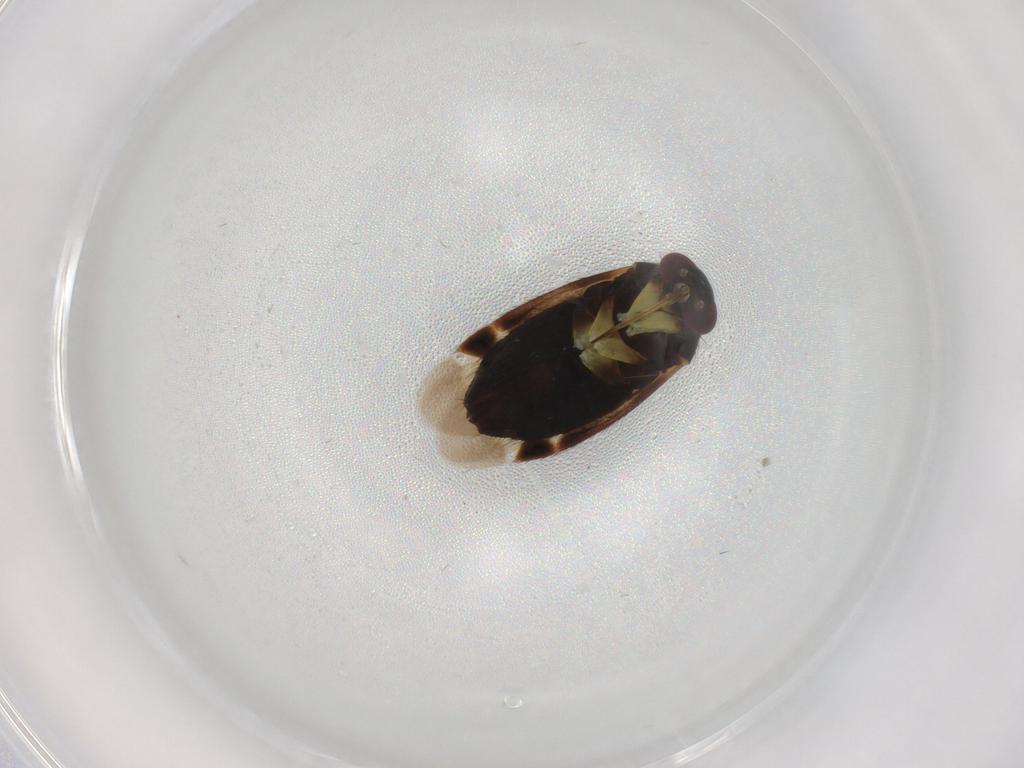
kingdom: Animalia
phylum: Arthropoda
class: Insecta
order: Hemiptera
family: Miridae
